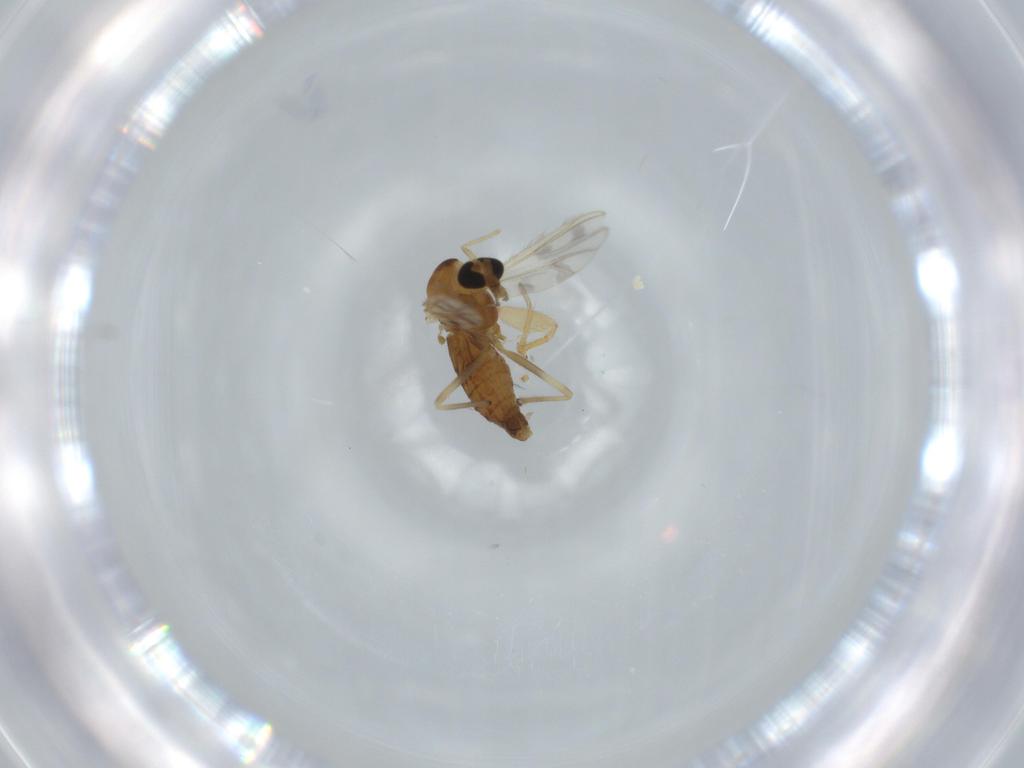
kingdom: Animalia
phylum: Arthropoda
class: Insecta
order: Diptera
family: Chironomidae
